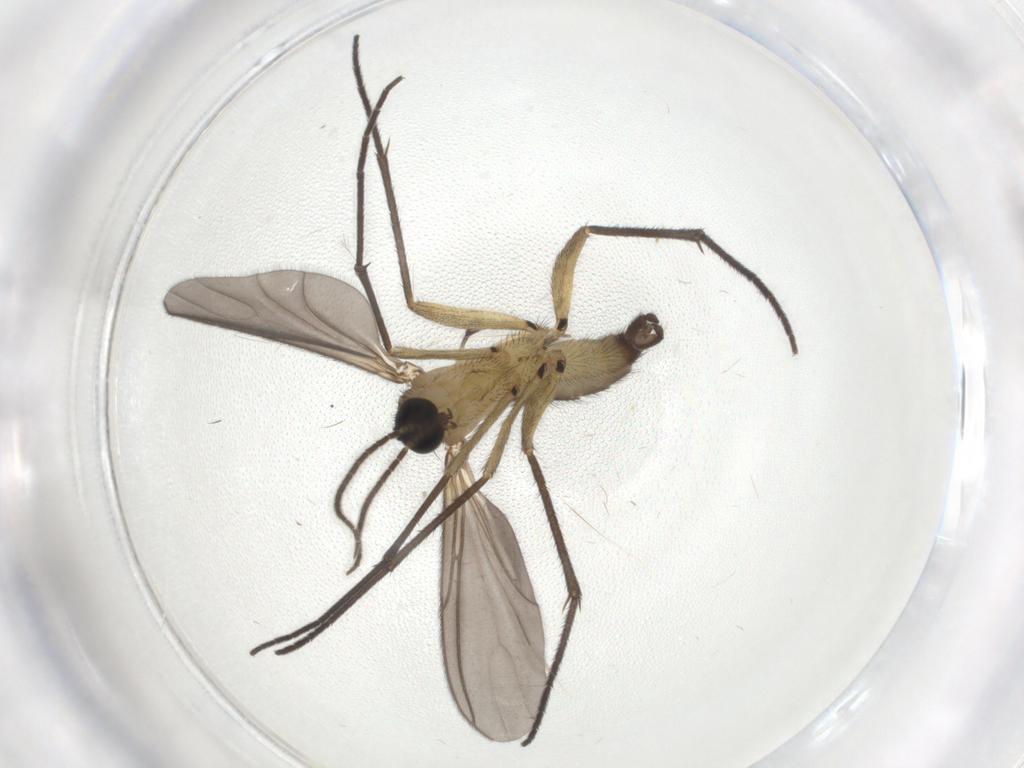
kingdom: Animalia
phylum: Arthropoda
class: Insecta
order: Diptera
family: Sciaridae
